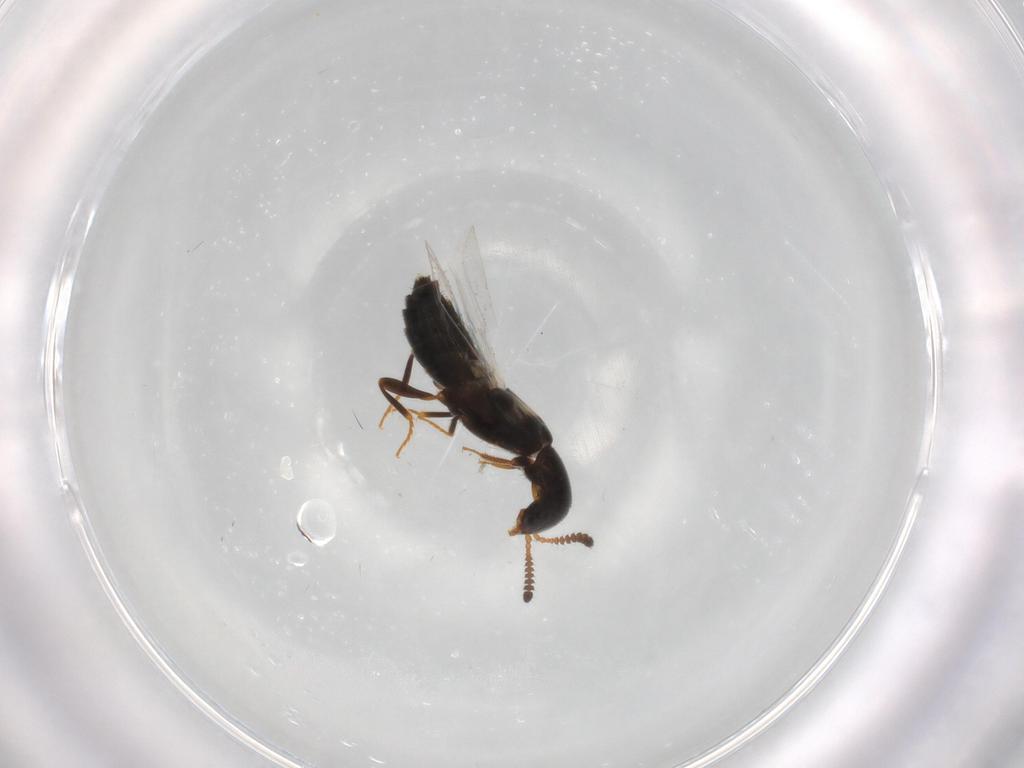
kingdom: Animalia
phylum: Arthropoda
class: Insecta
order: Coleoptera
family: Staphylinidae
